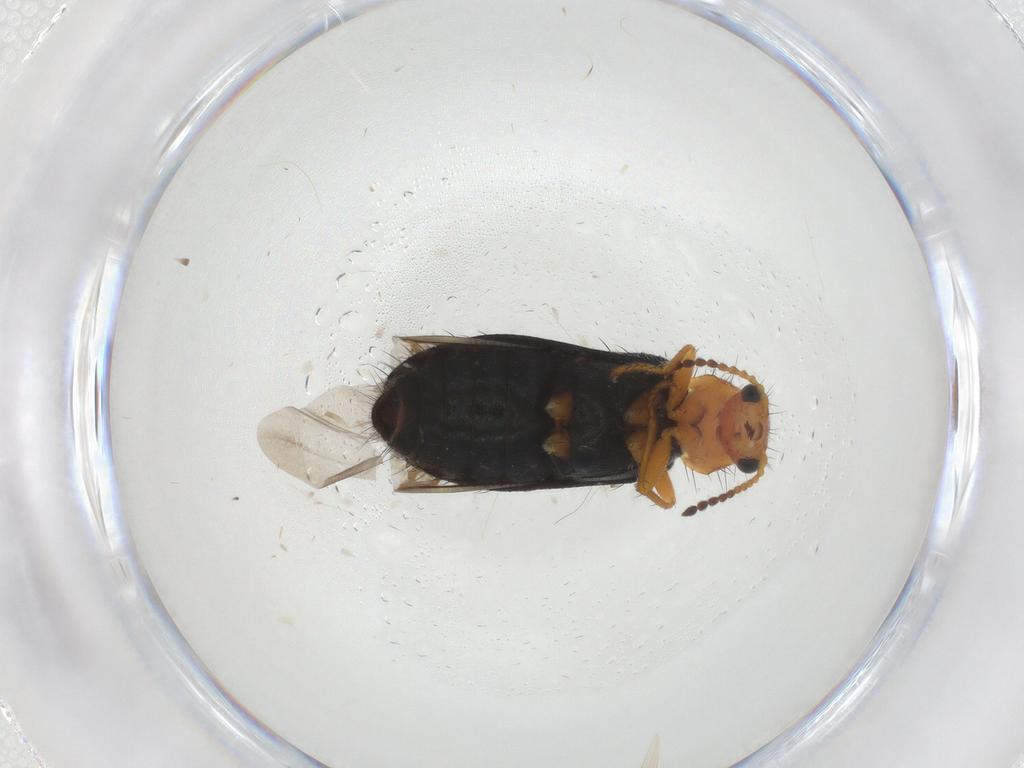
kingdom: Animalia
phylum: Arthropoda
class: Insecta
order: Coleoptera
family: Melyridae
